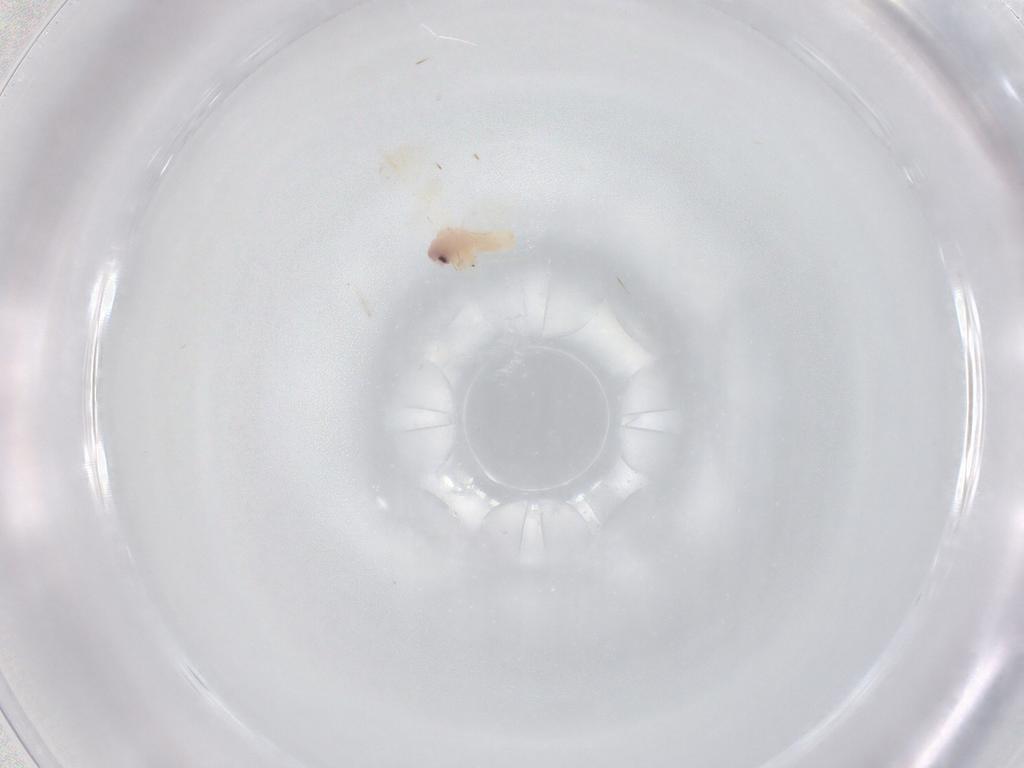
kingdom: Animalia
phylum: Arthropoda
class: Insecta
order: Hemiptera
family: Aleyrodidae
